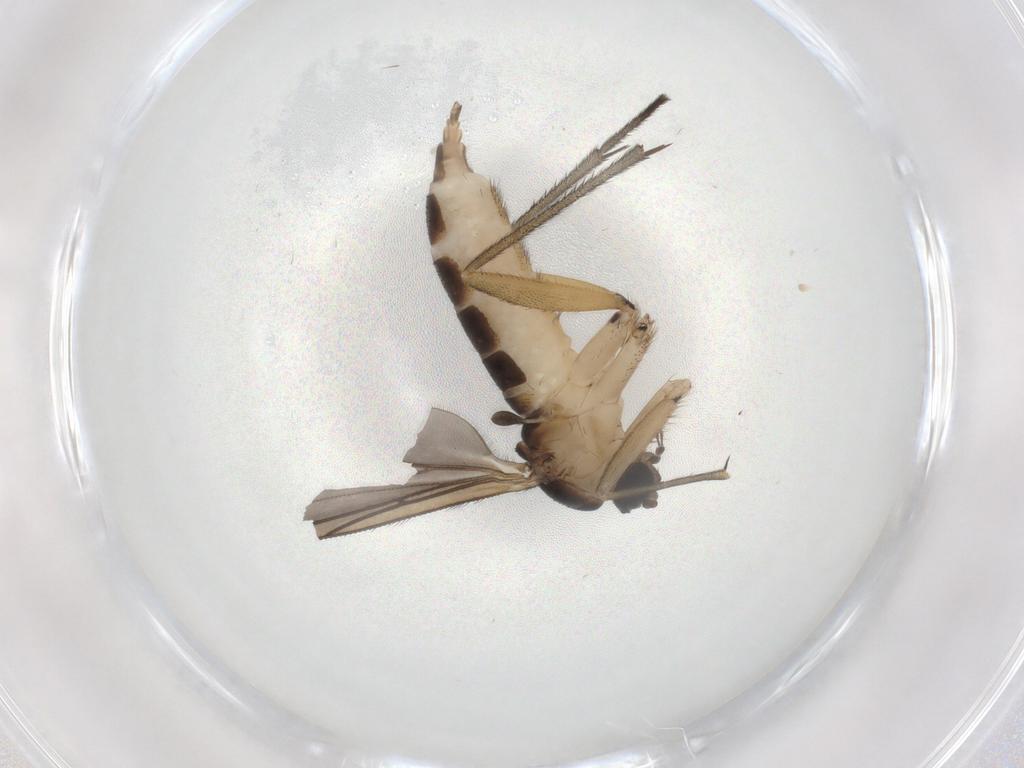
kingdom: Animalia
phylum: Arthropoda
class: Insecta
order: Diptera
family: Sciaridae
